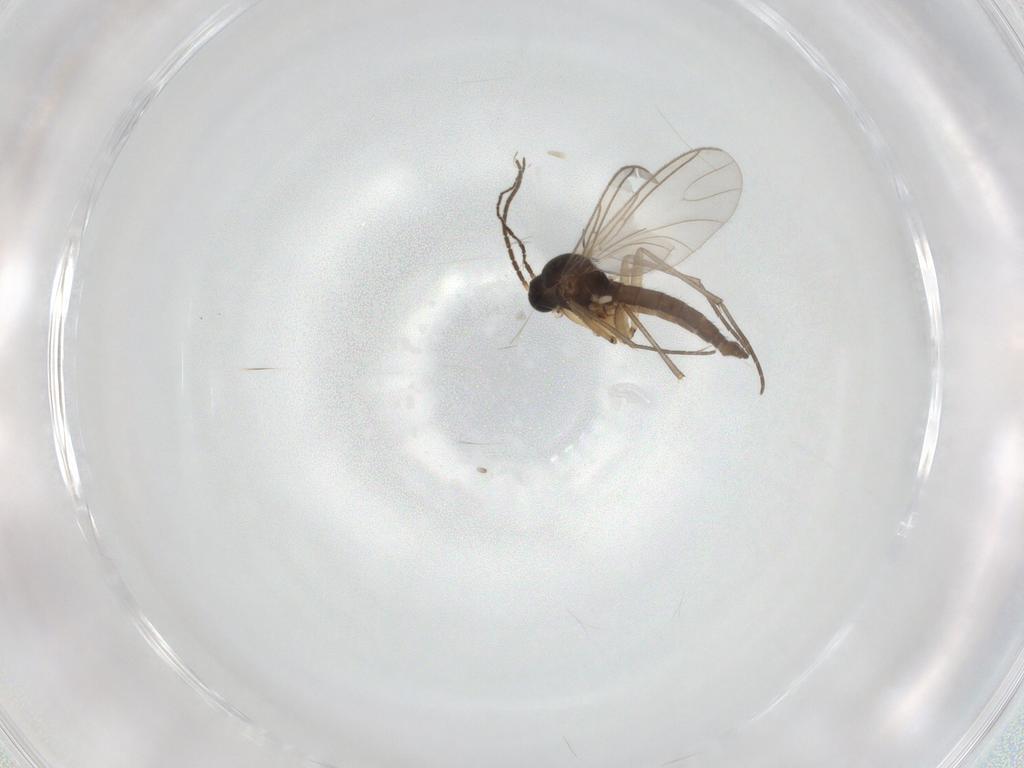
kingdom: Animalia
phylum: Arthropoda
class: Insecta
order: Diptera
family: Sciaridae
